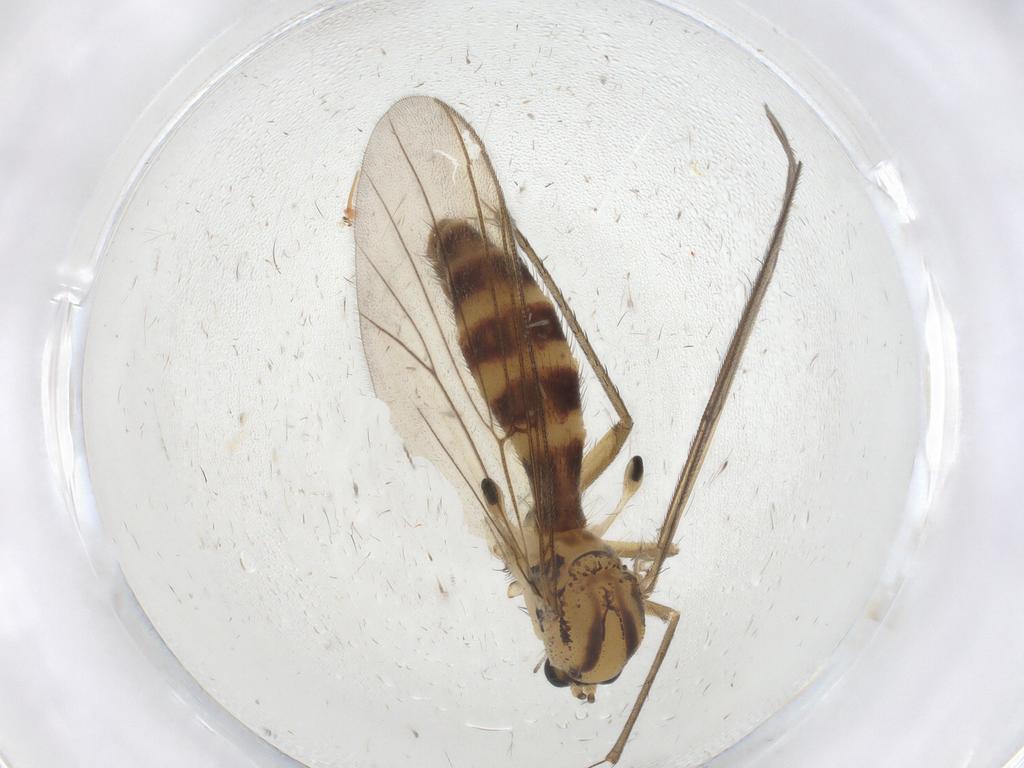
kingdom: Animalia
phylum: Arthropoda
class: Insecta
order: Diptera
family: Mycetophilidae
